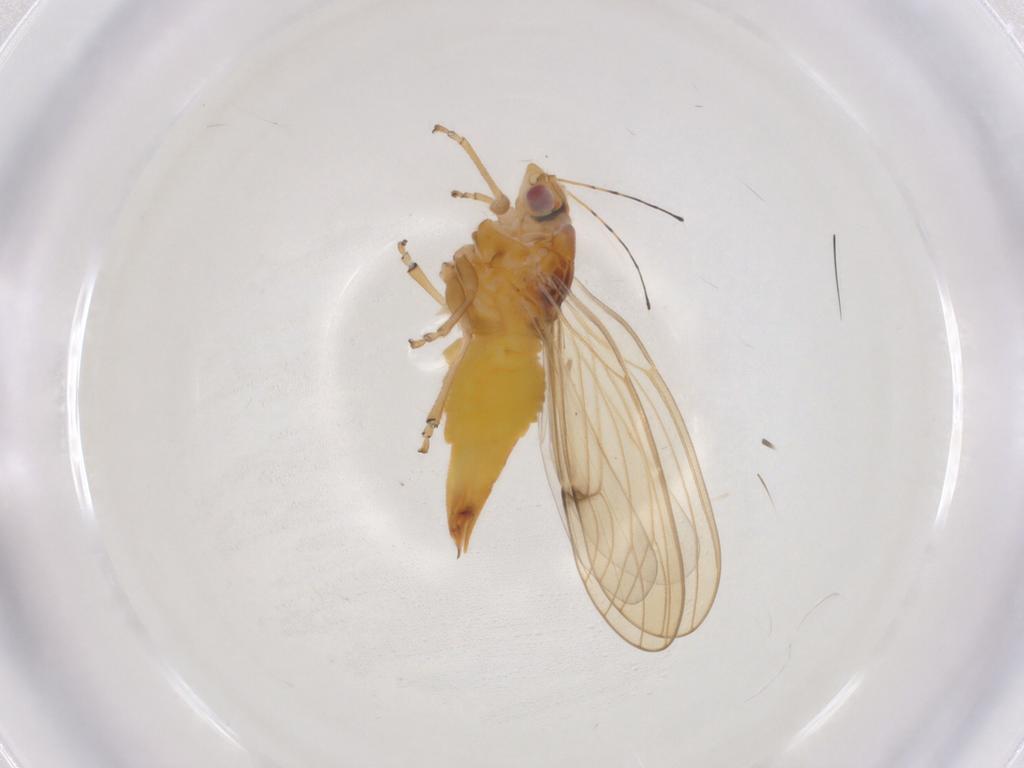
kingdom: Animalia
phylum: Arthropoda
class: Insecta
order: Hemiptera
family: Psylloidea_incertae_sedis
